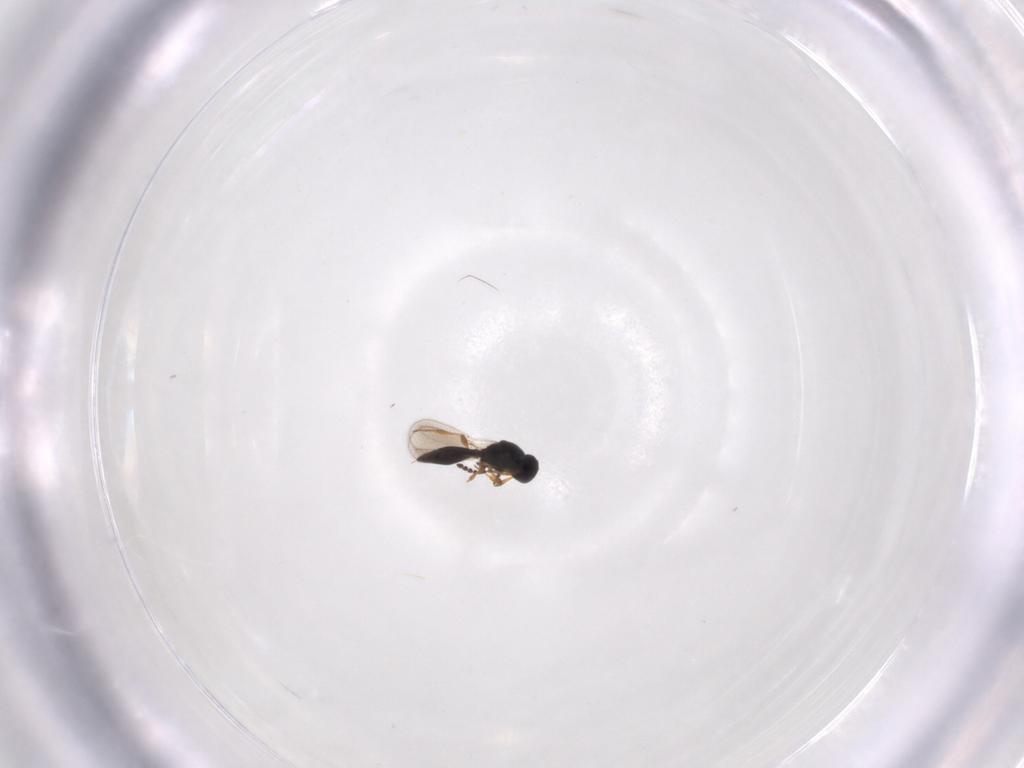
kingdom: Animalia
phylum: Arthropoda
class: Insecta
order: Hymenoptera
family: Platygastridae
